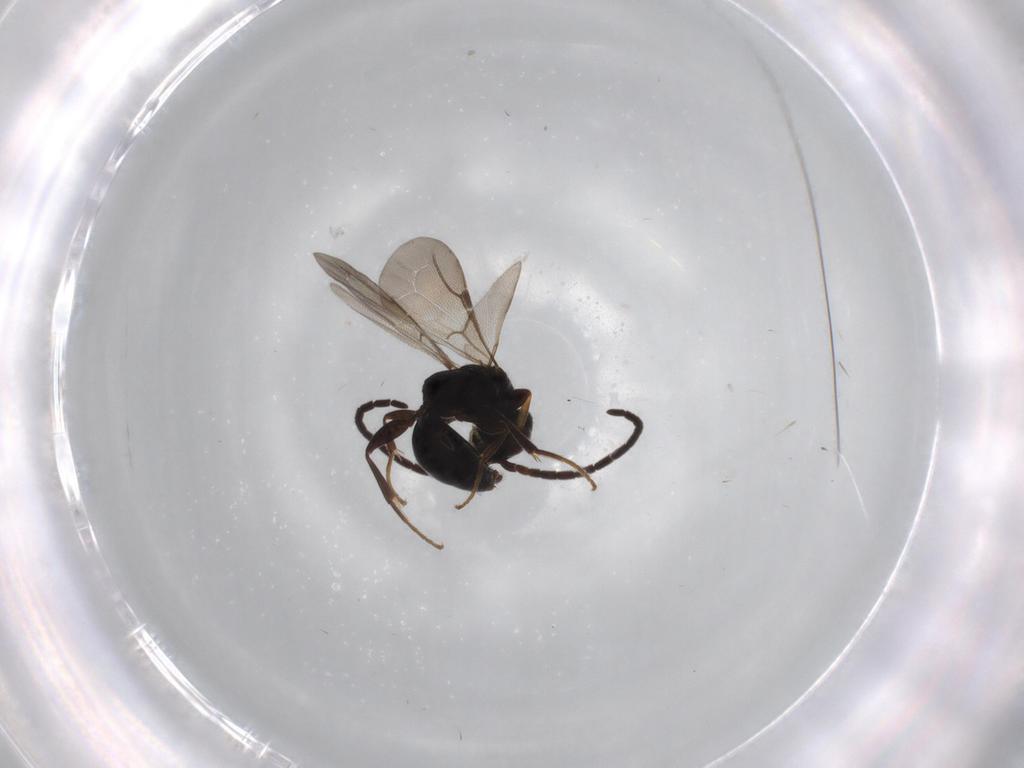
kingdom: Animalia
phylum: Arthropoda
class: Insecta
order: Hymenoptera
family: Bethylidae
